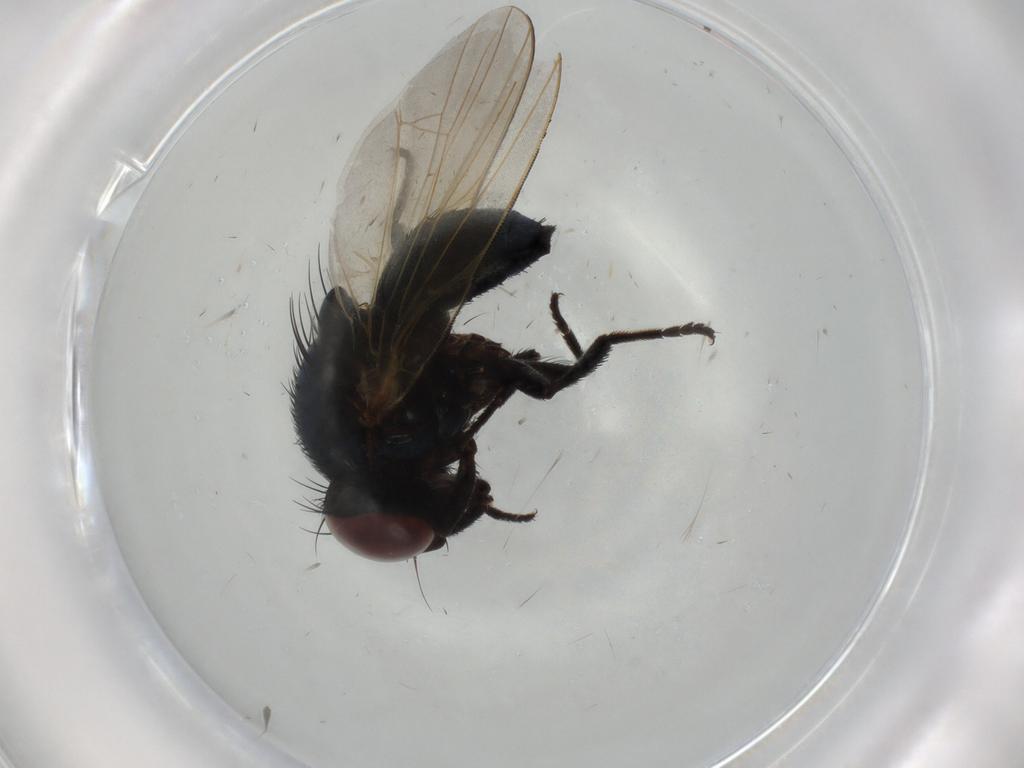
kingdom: Animalia
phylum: Arthropoda
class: Insecta
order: Diptera
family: Lonchaeidae
